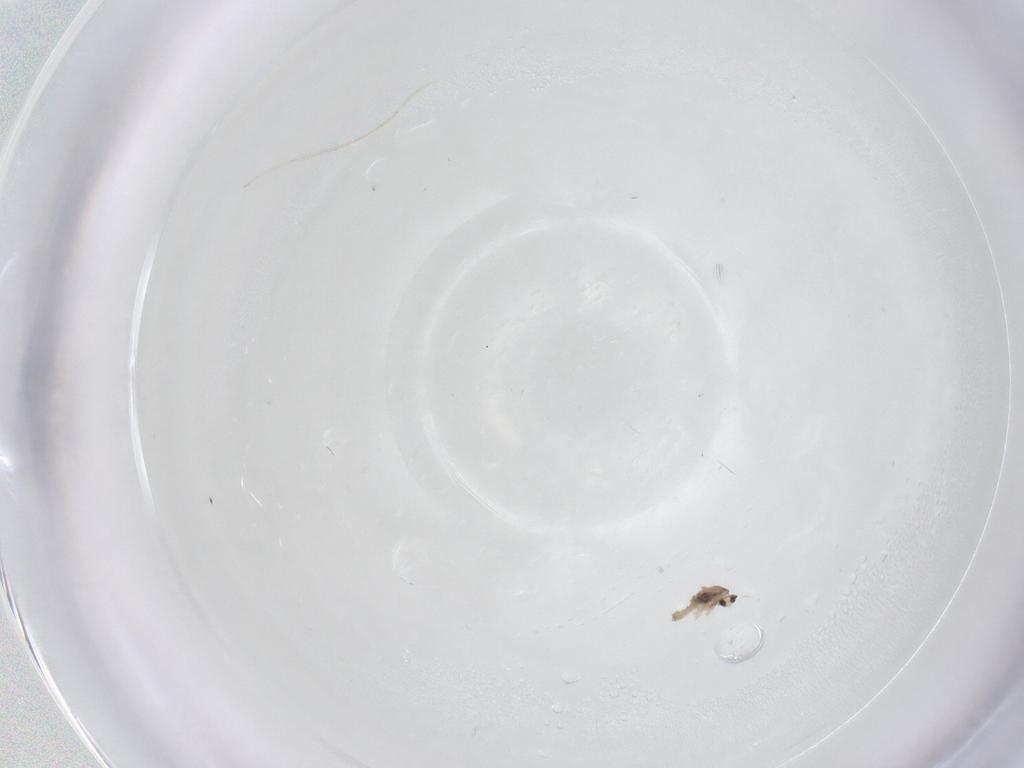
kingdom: Animalia
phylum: Arthropoda
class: Insecta
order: Diptera
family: Cecidomyiidae
